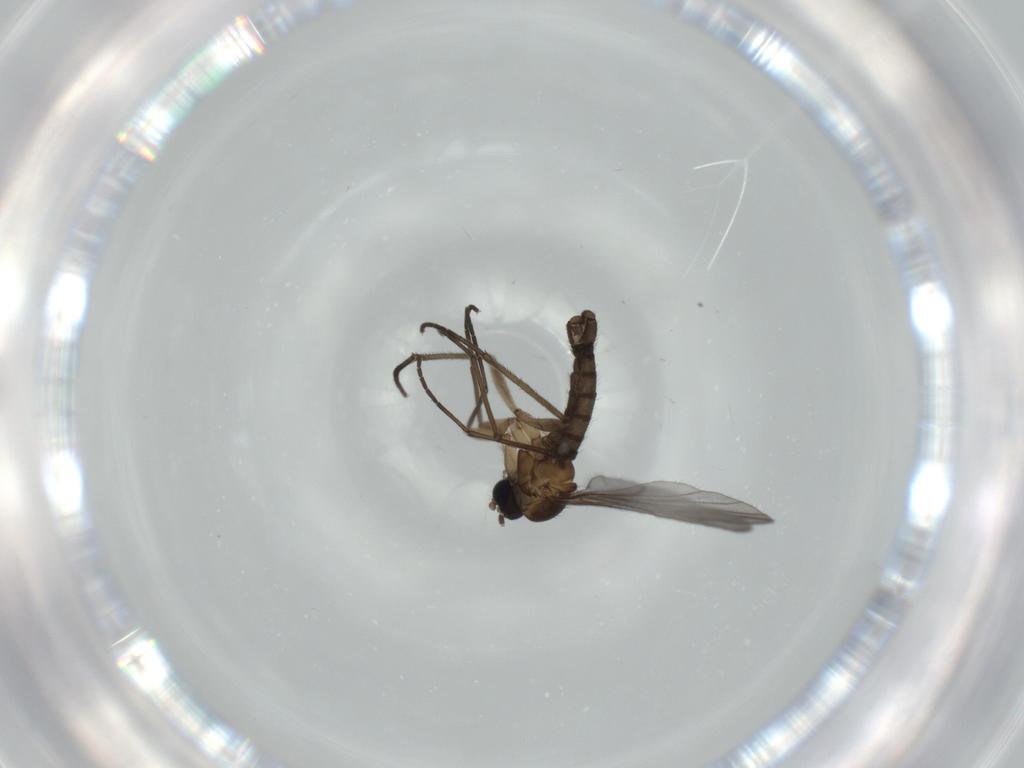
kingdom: Animalia
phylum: Arthropoda
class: Insecta
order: Diptera
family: Sciaridae
